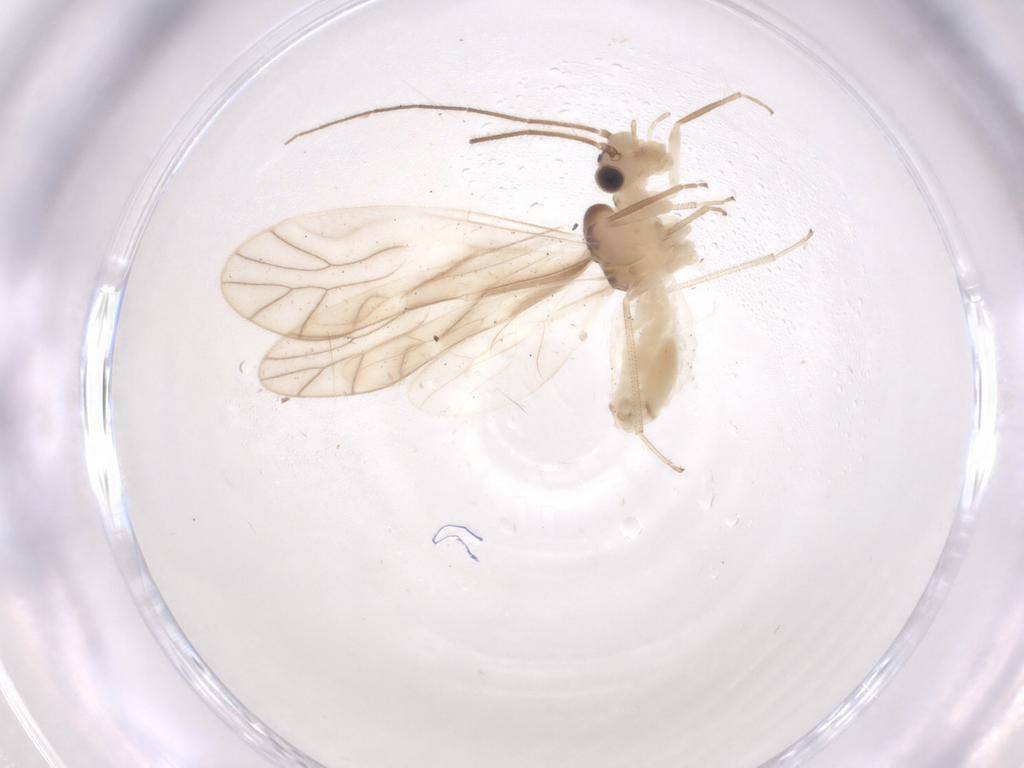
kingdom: Animalia
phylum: Arthropoda
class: Insecta
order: Psocodea
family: Caeciliusidae
